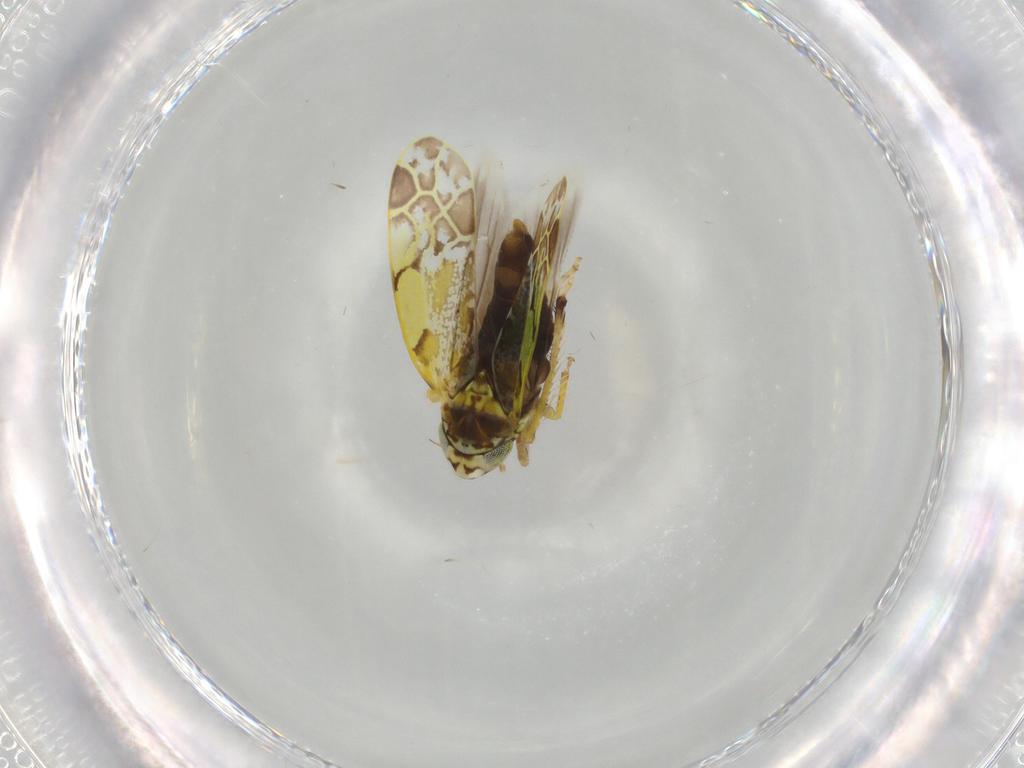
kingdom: Animalia
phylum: Arthropoda
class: Insecta
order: Hemiptera
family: Cicadellidae
